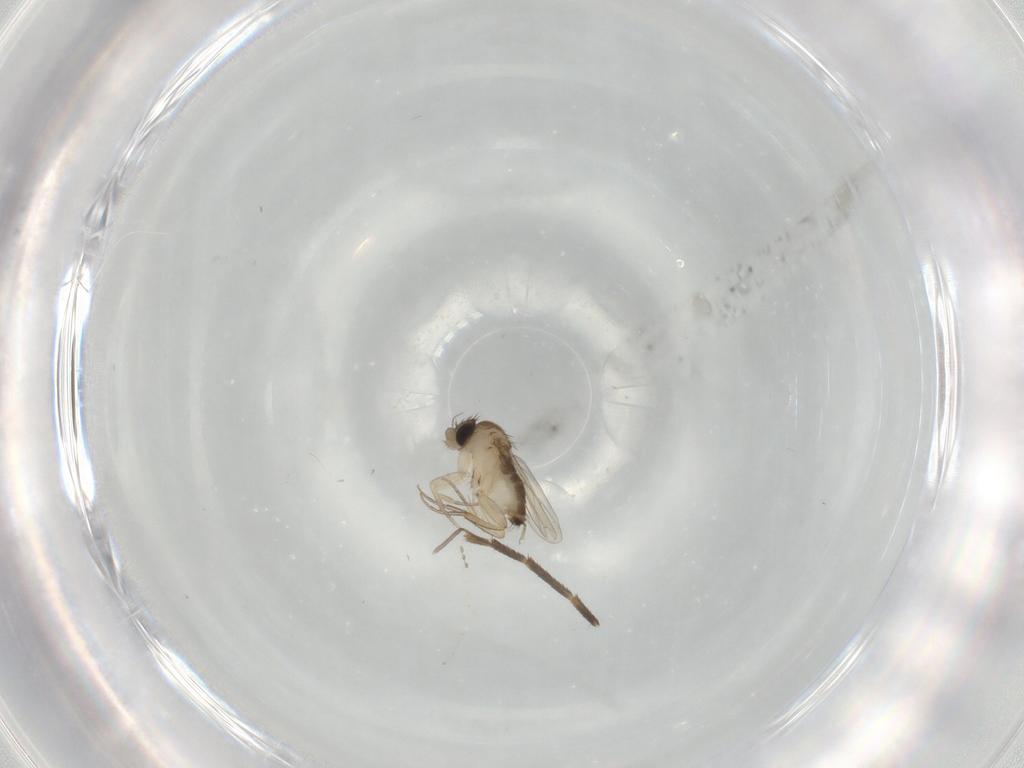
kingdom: Animalia
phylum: Arthropoda
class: Insecta
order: Diptera
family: Phoridae
